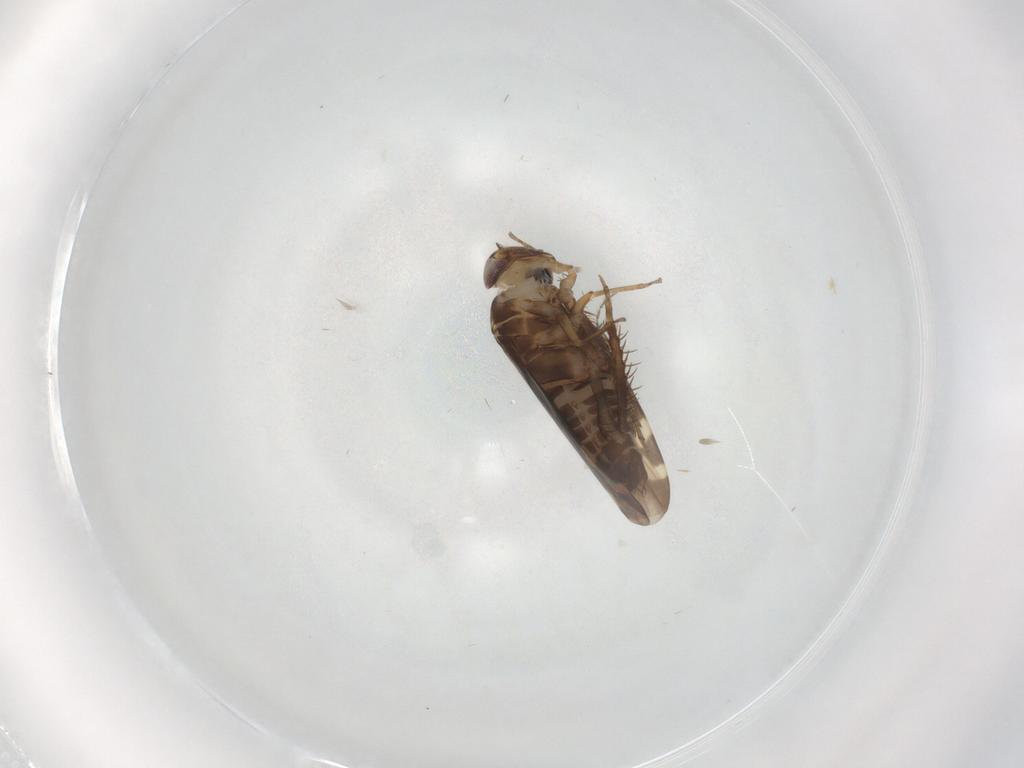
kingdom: Animalia
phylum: Arthropoda
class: Insecta
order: Hemiptera
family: Cicadellidae
